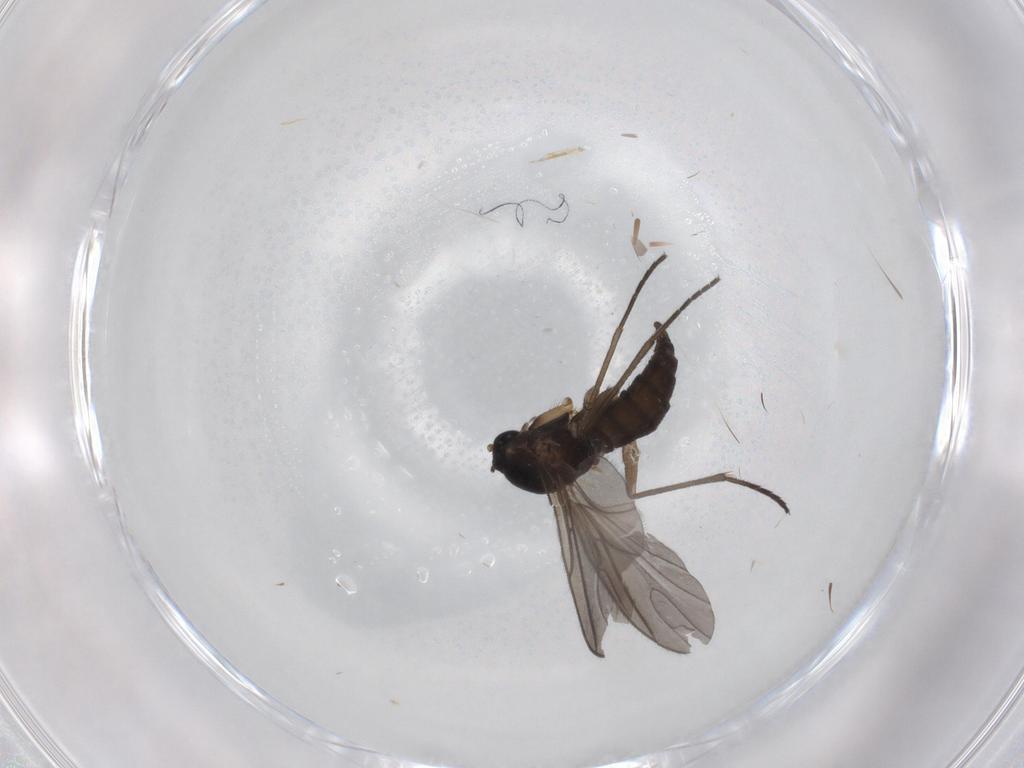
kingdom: Animalia
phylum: Arthropoda
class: Insecta
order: Diptera
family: Sciaridae
